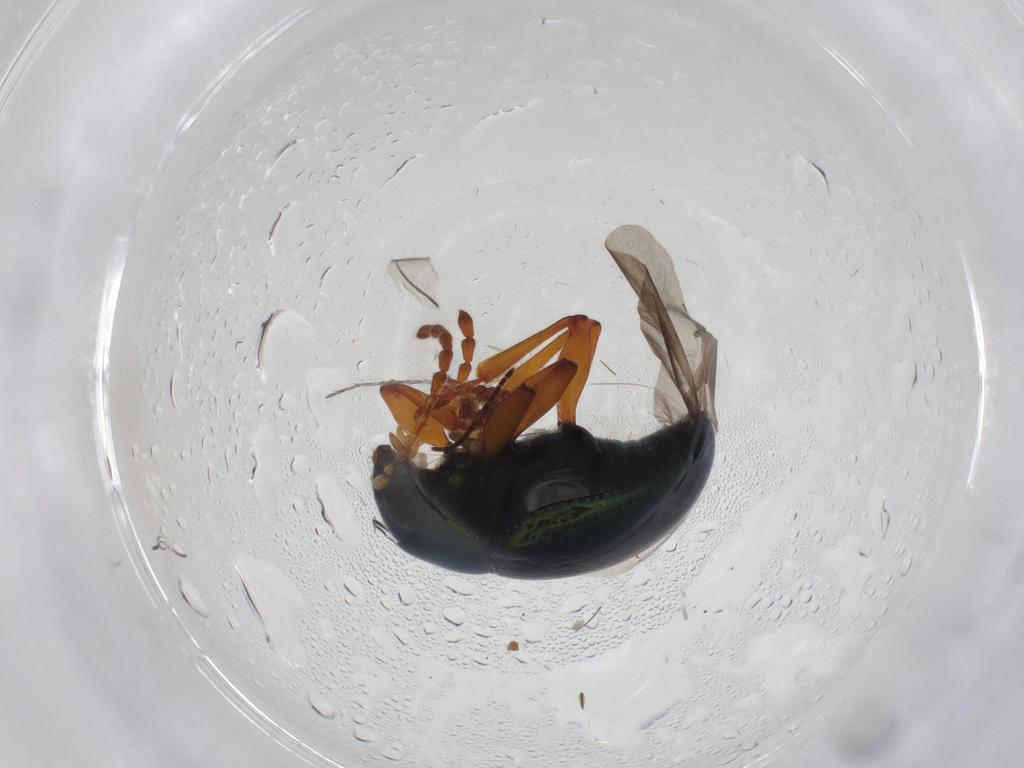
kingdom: Animalia
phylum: Arthropoda
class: Insecta
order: Coleoptera
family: Chrysomelidae
